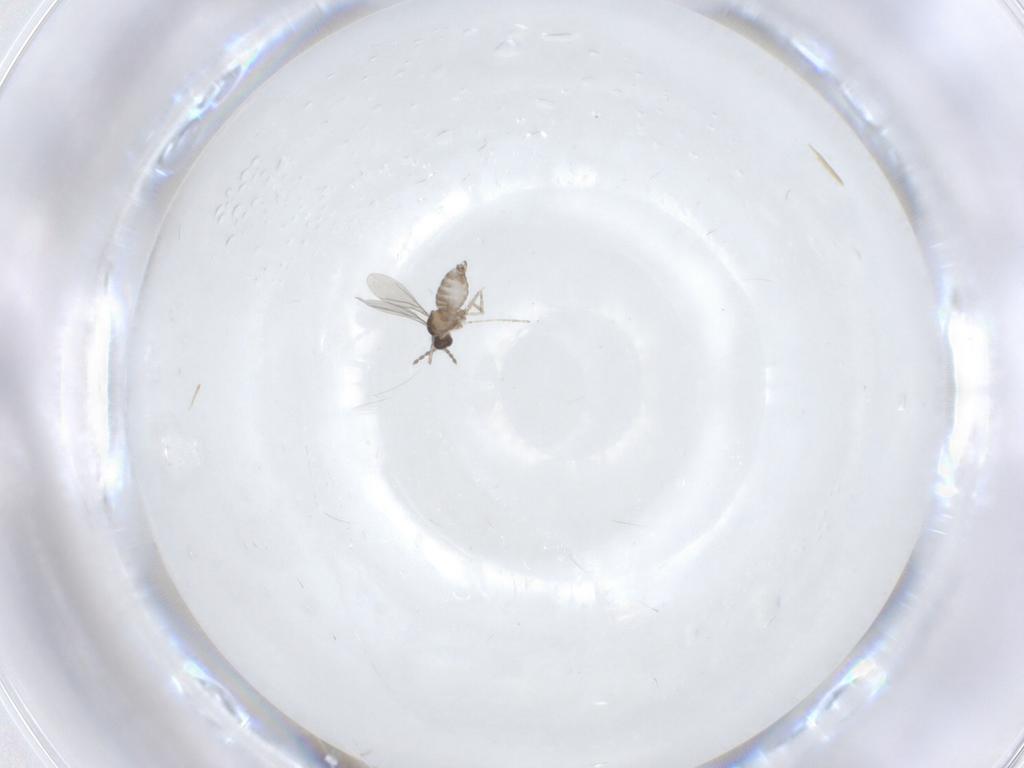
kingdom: Animalia
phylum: Arthropoda
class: Insecta
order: Diptera
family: Cecidomyiidae
